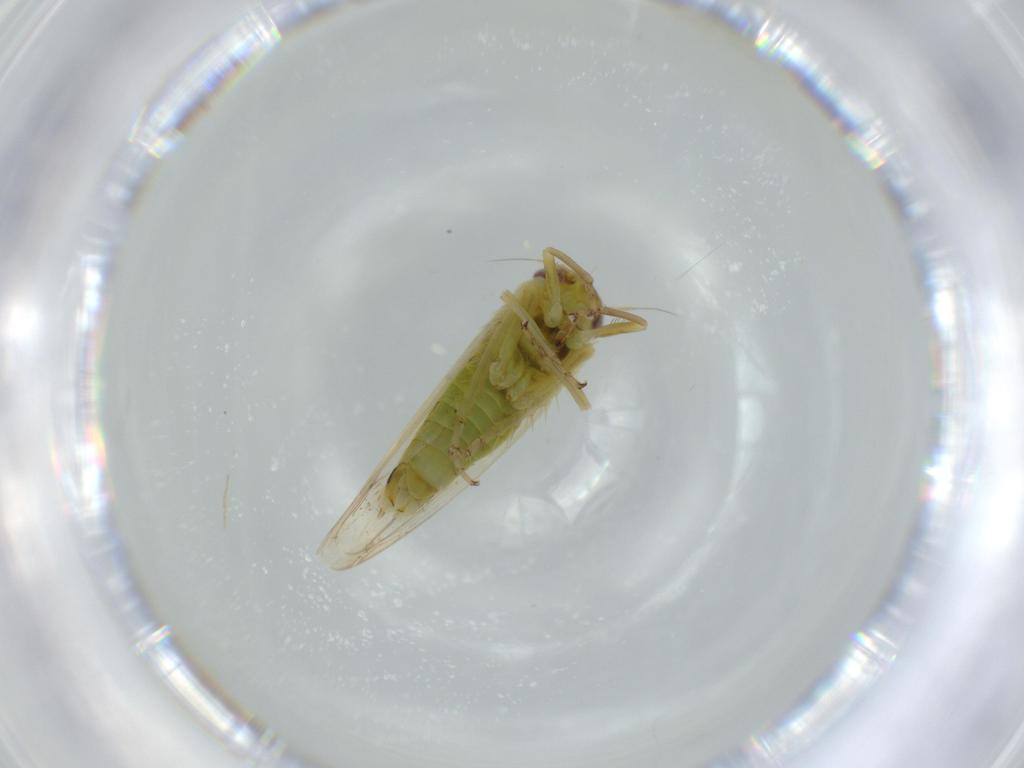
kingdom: Animalia
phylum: Arthropoda
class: Insecta
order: Hemiptera
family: Cicadellidae
